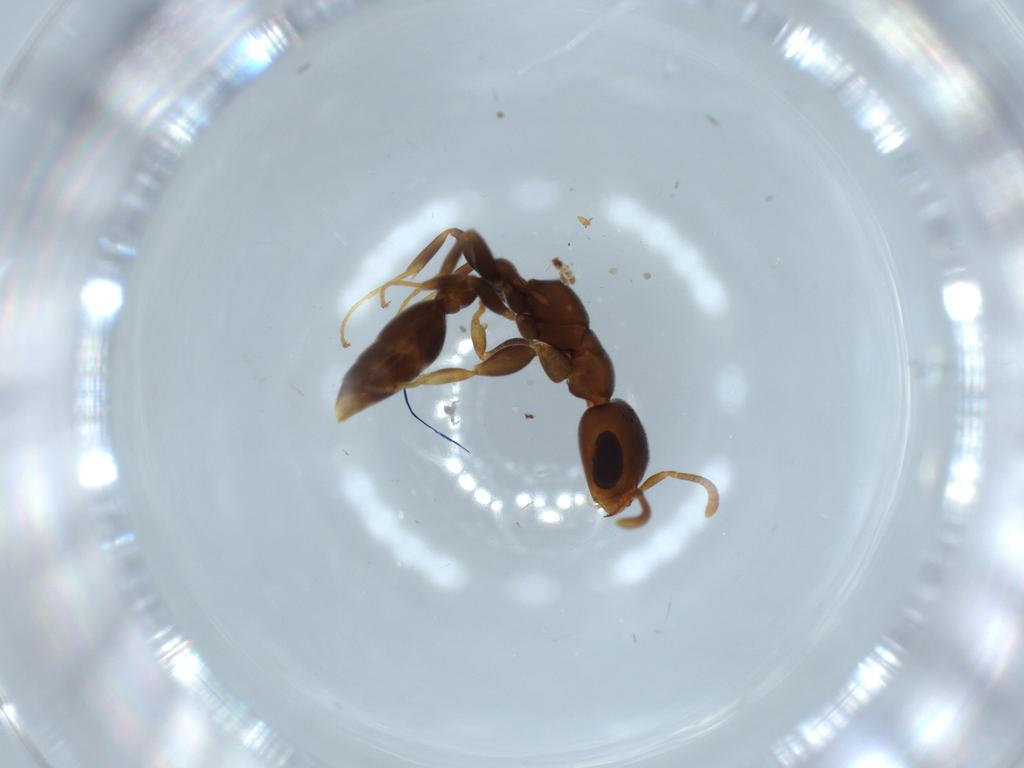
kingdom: Animalia
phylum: Arthropoda
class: Insecta
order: Hymenoptera
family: Formicidae
